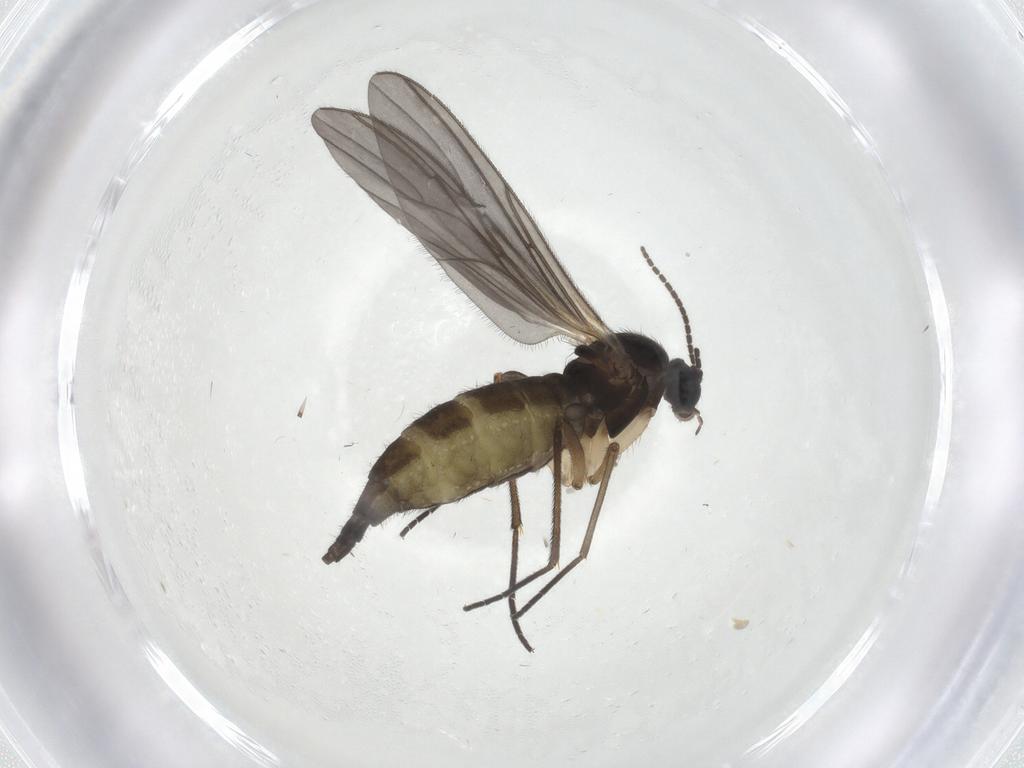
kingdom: Animalia
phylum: Arthropoda
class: Insecta
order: Diptera
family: Sciaridae
